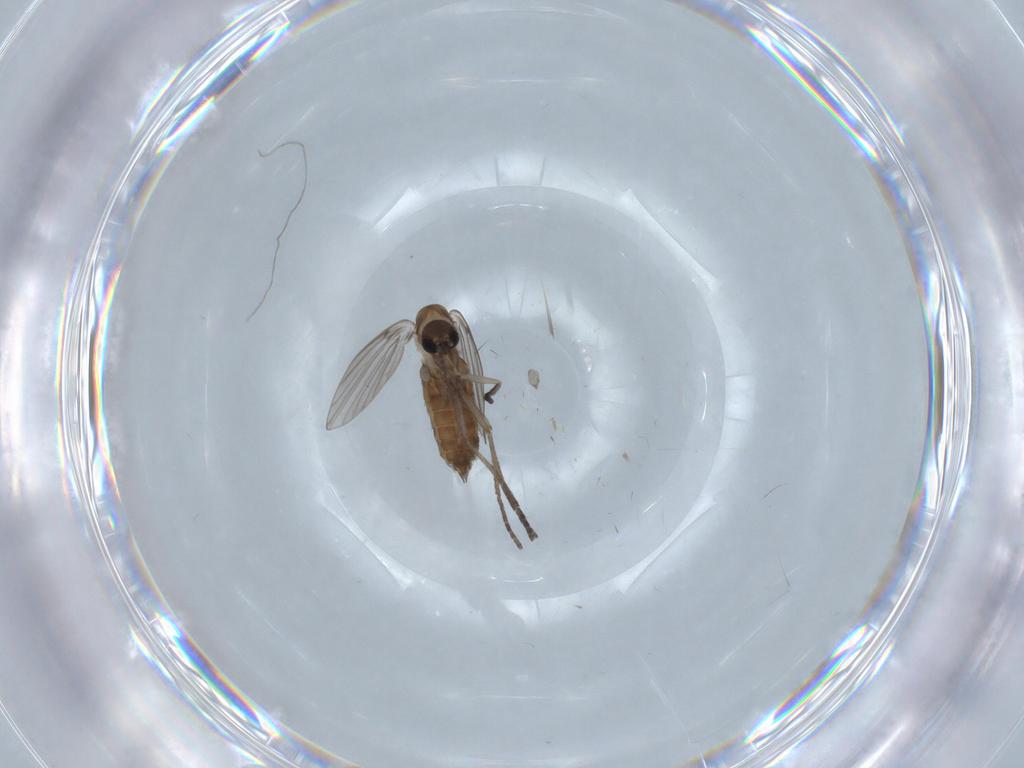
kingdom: Animalia
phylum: Arthropoda
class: Insecta
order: Diptera
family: Psychodidae
